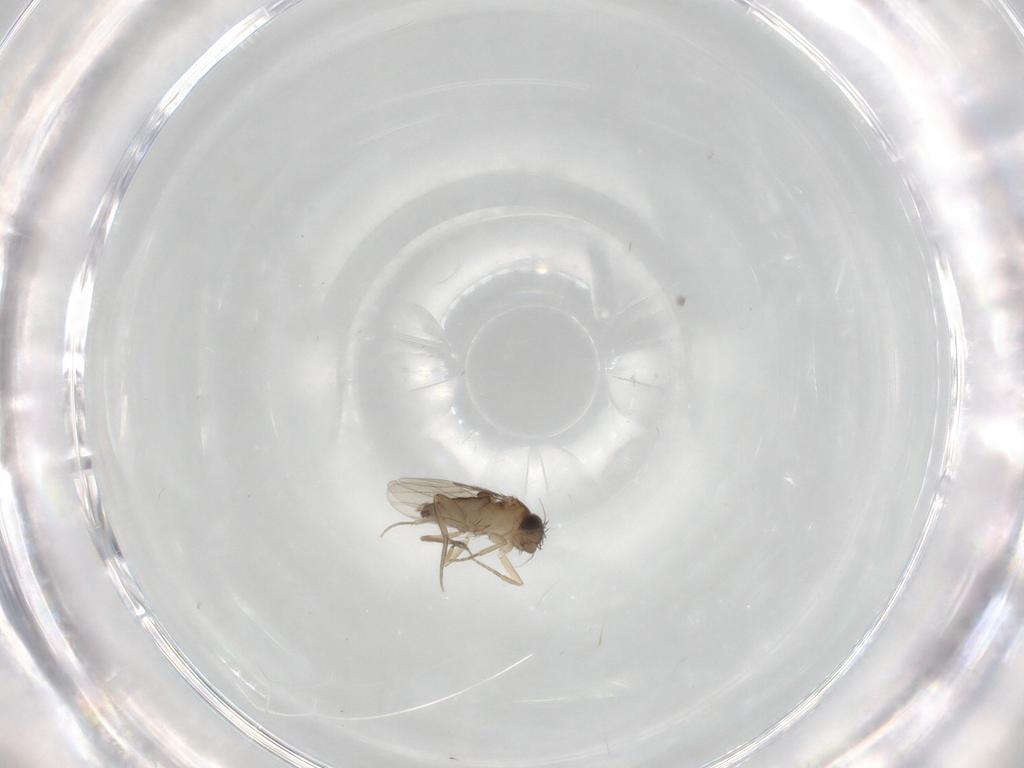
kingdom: Animalia
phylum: Arthropoda
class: Insecta
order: Diptera
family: Phoridae
